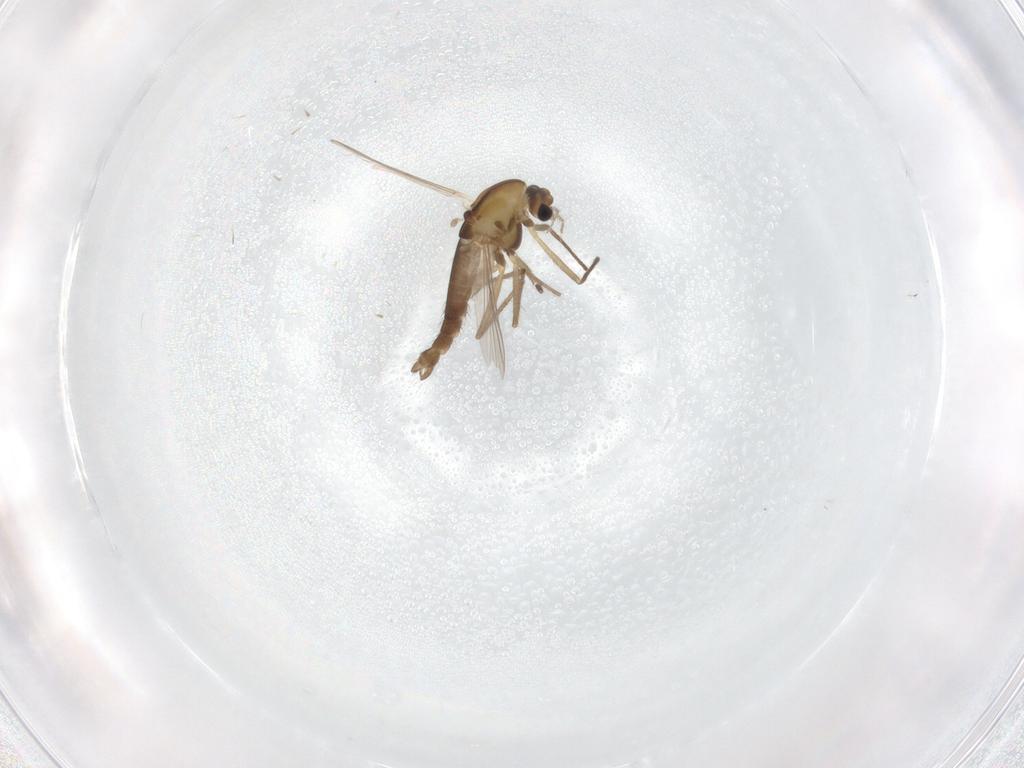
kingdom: Animalia
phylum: Arthropoda
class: Insecta
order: Diptera
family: Chironomidae
